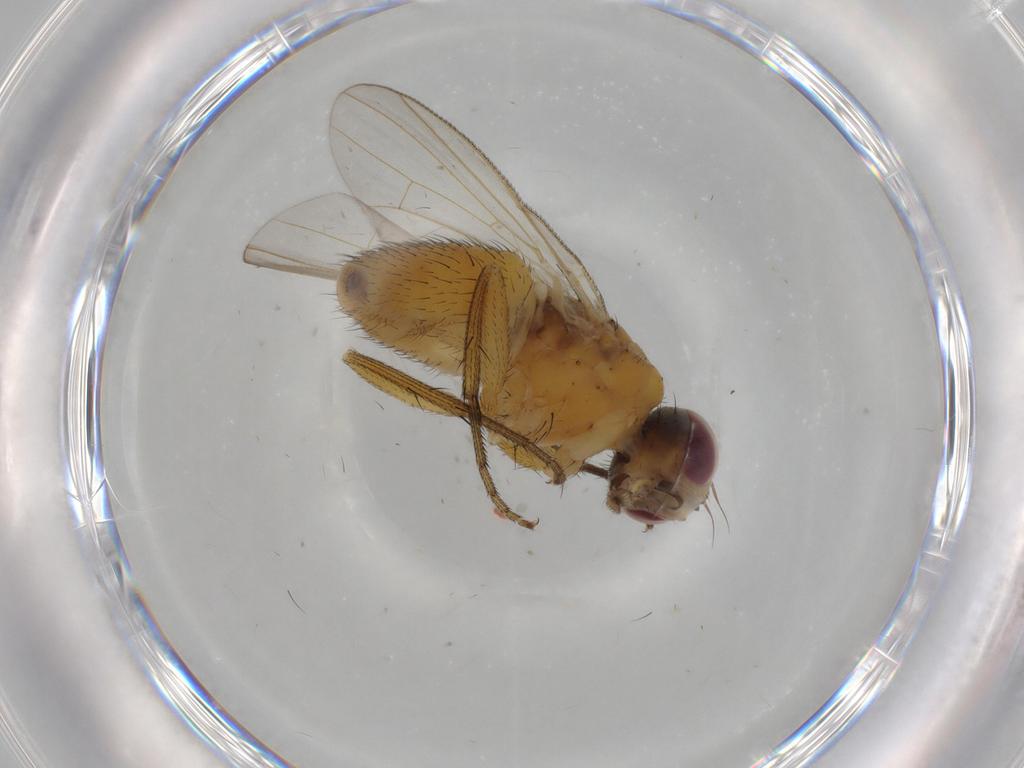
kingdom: Animalia
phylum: Arthropoda
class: Insecta
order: Diptera
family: Muscidae
